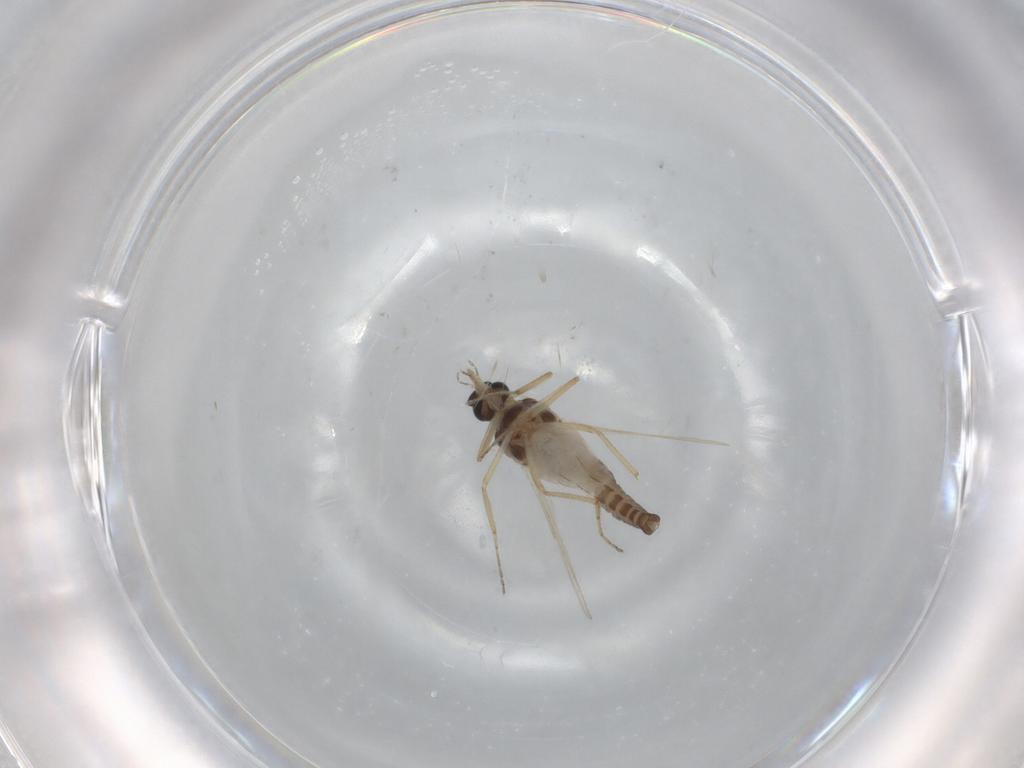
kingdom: Animalia
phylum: Arthropoda
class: Insecta
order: Diptera
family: Ceratopogonidae
